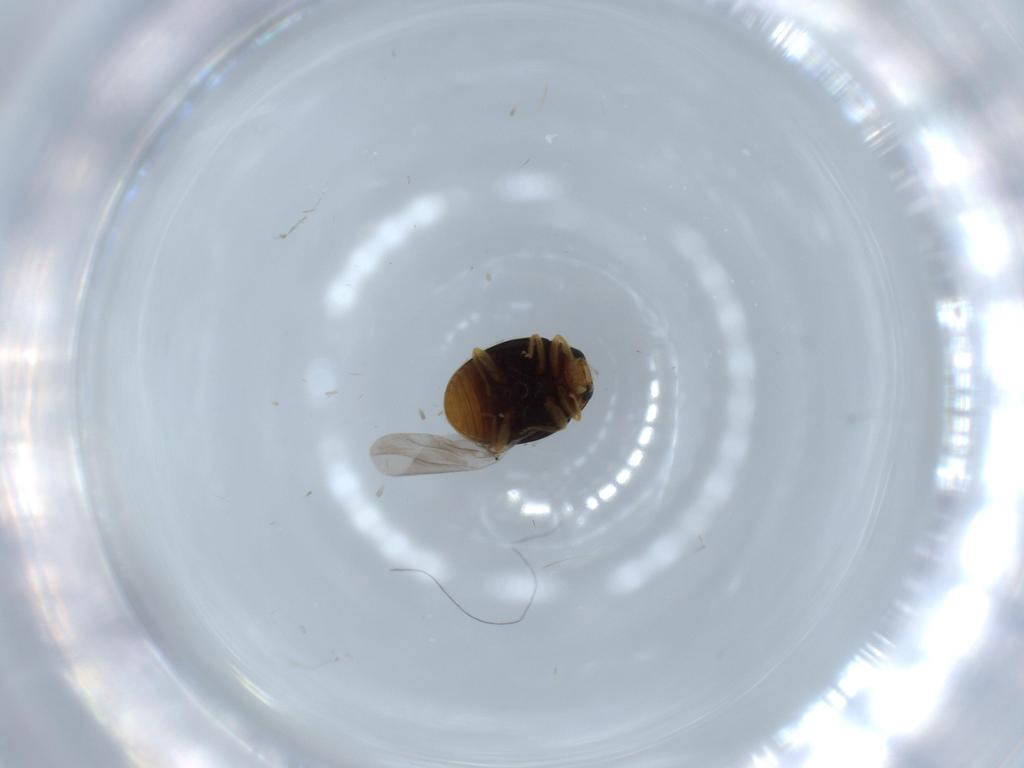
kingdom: Animalia
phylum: Arthropoda
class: Insecta
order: Coleoptera
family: Coccinellidae
